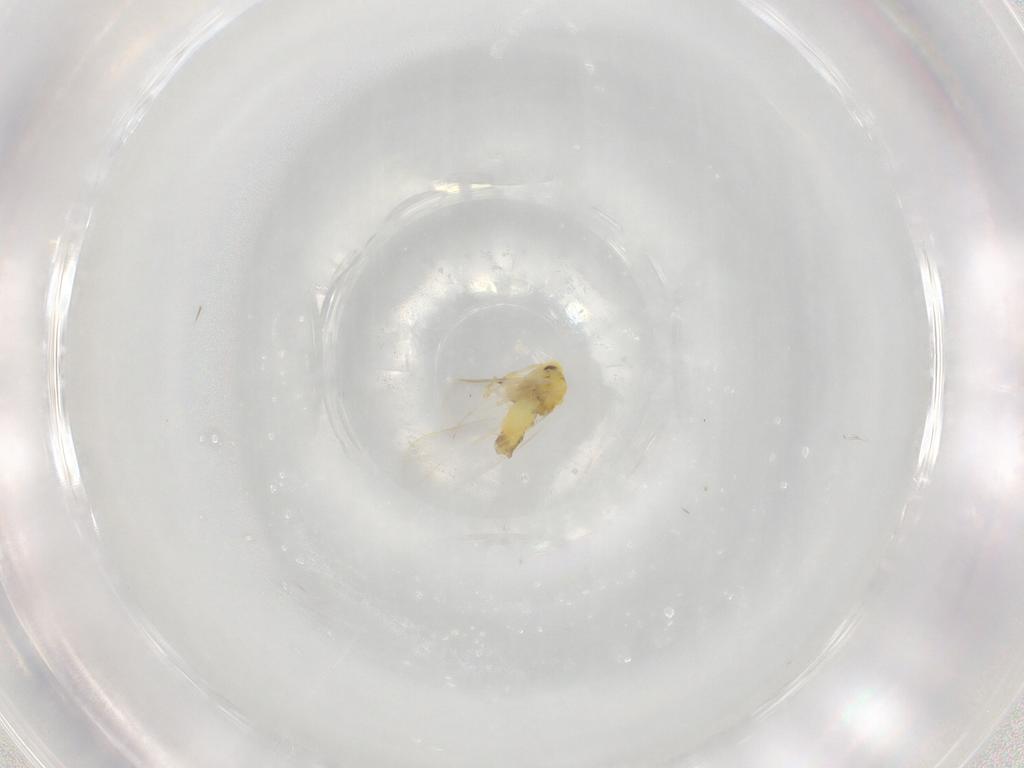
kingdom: Animalia
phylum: Arthropoda
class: Insecta
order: Hemiptera
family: Aleyrodidae
